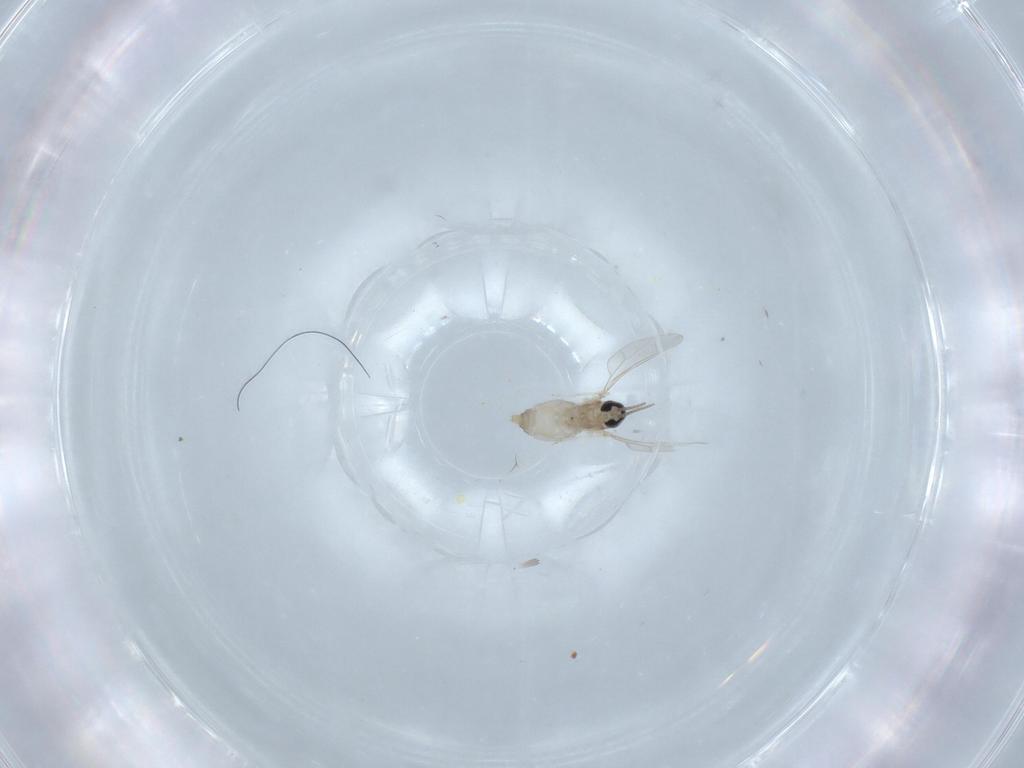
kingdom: Animalia
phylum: Arthropoda
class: Insecta
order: Diptera
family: Cecidomyiidae
